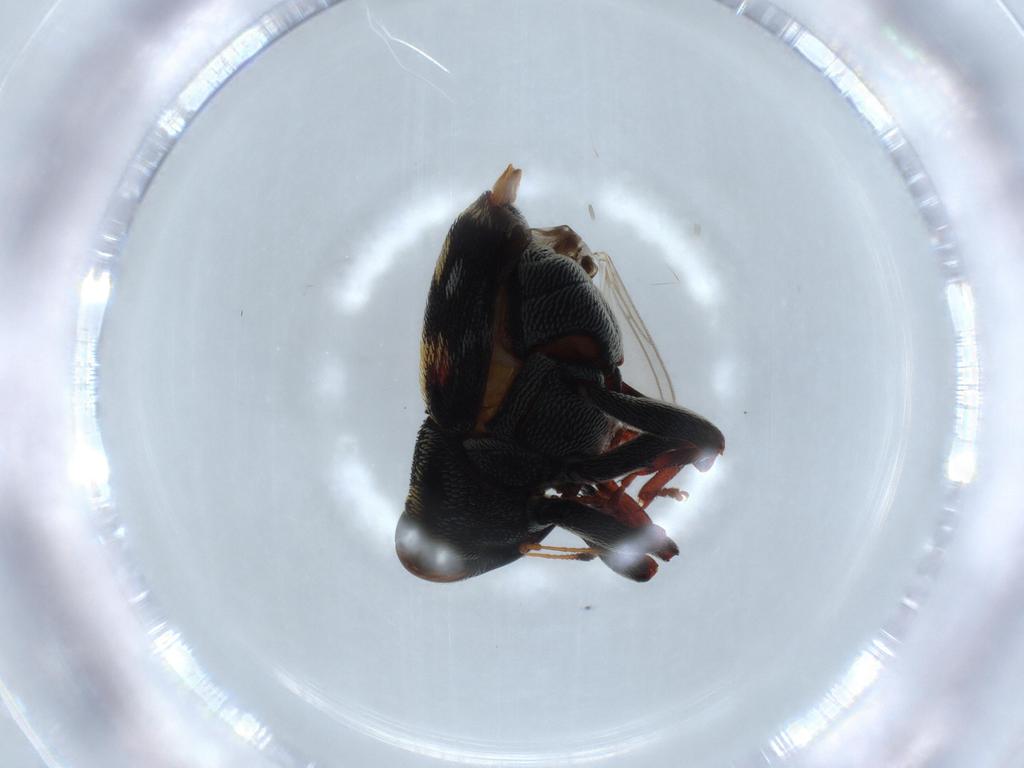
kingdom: Animalia
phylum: Arthropoda
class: Insecta
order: Coleoptera
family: Curculionidae
